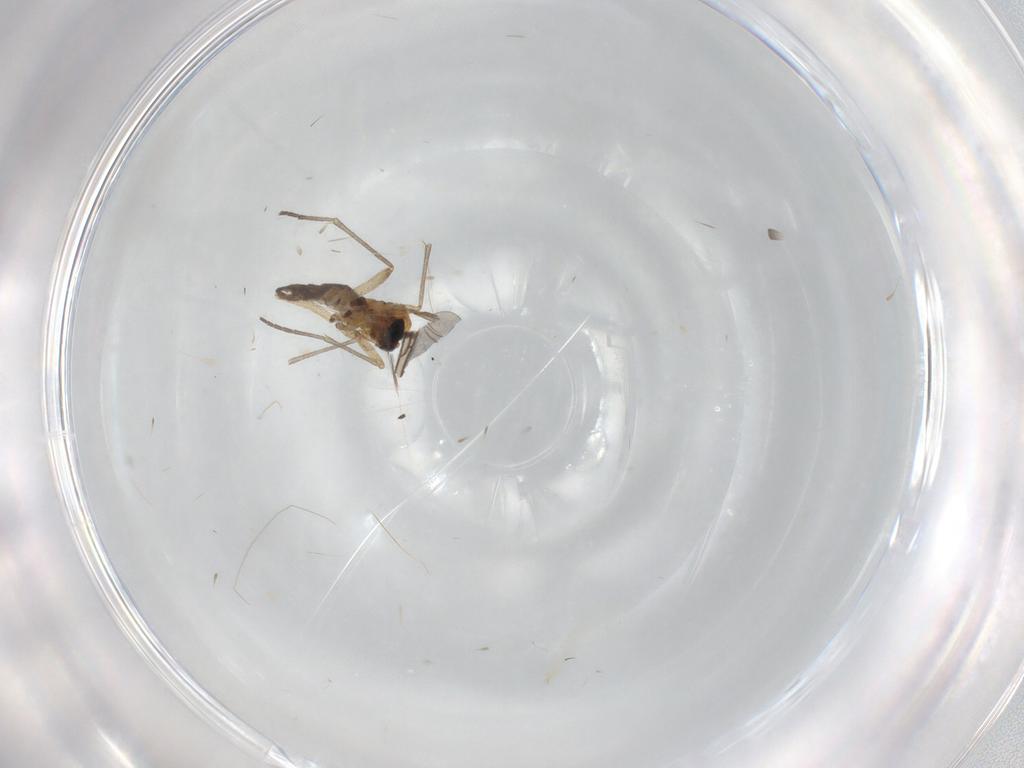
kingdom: Animalia
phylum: Arthropoda
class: Insecta
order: Diptera
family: Sciaridae
